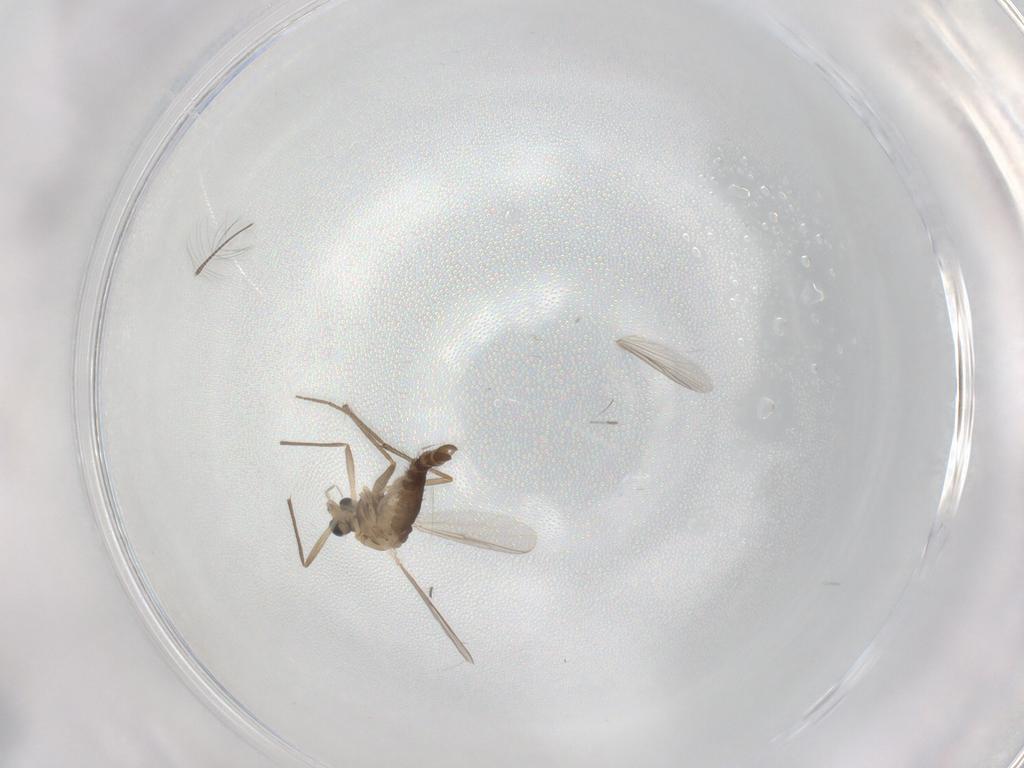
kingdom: Animalia
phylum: Arthropoda
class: Insecta
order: Diptera
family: Chironomidae
